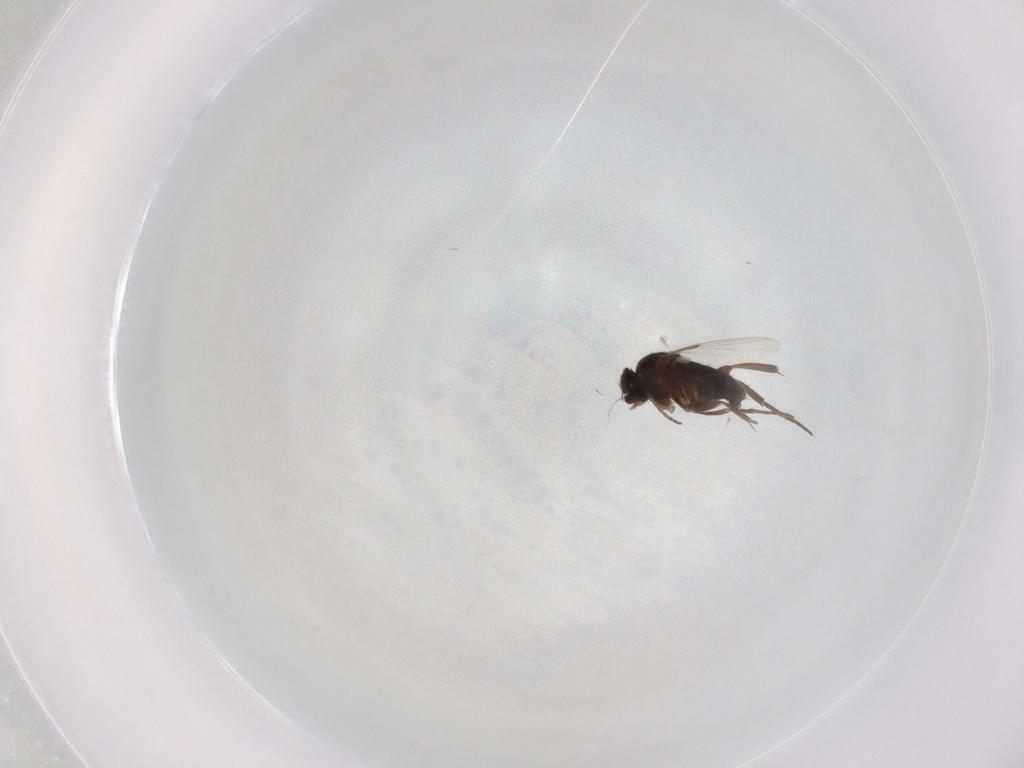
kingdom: Animalia
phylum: Arthropoda
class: Insecta
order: Diptera
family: Phoridae
